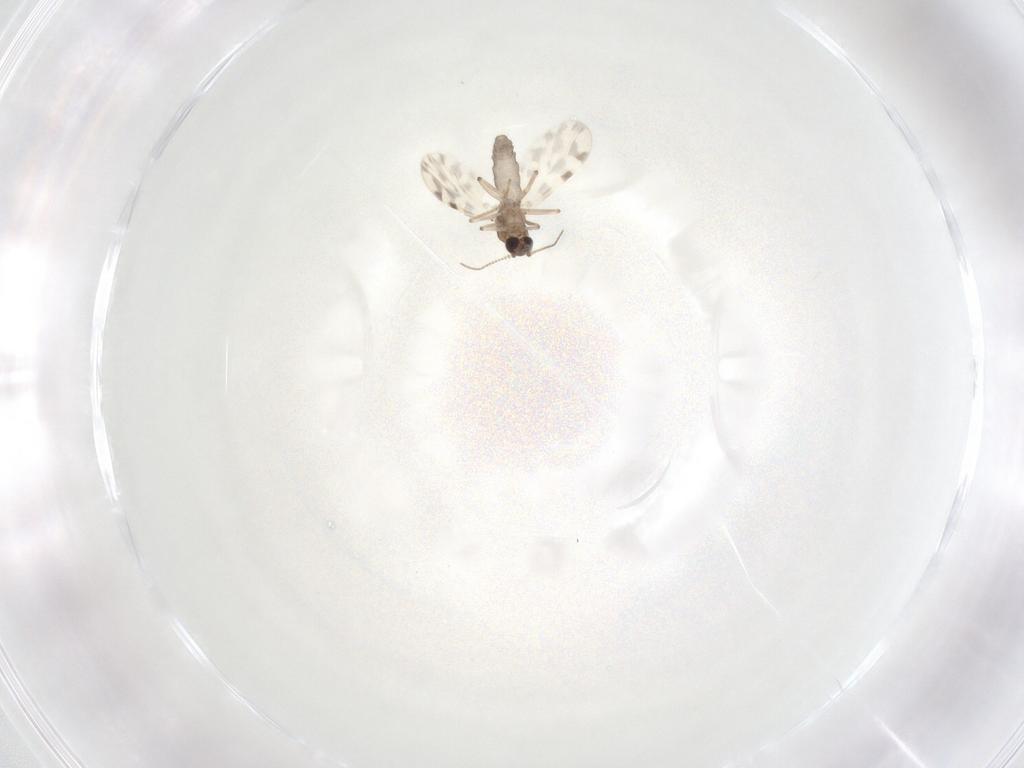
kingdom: Animalia
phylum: Arthropoda
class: Insecta
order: Diptera
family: Ceratopogonidae
